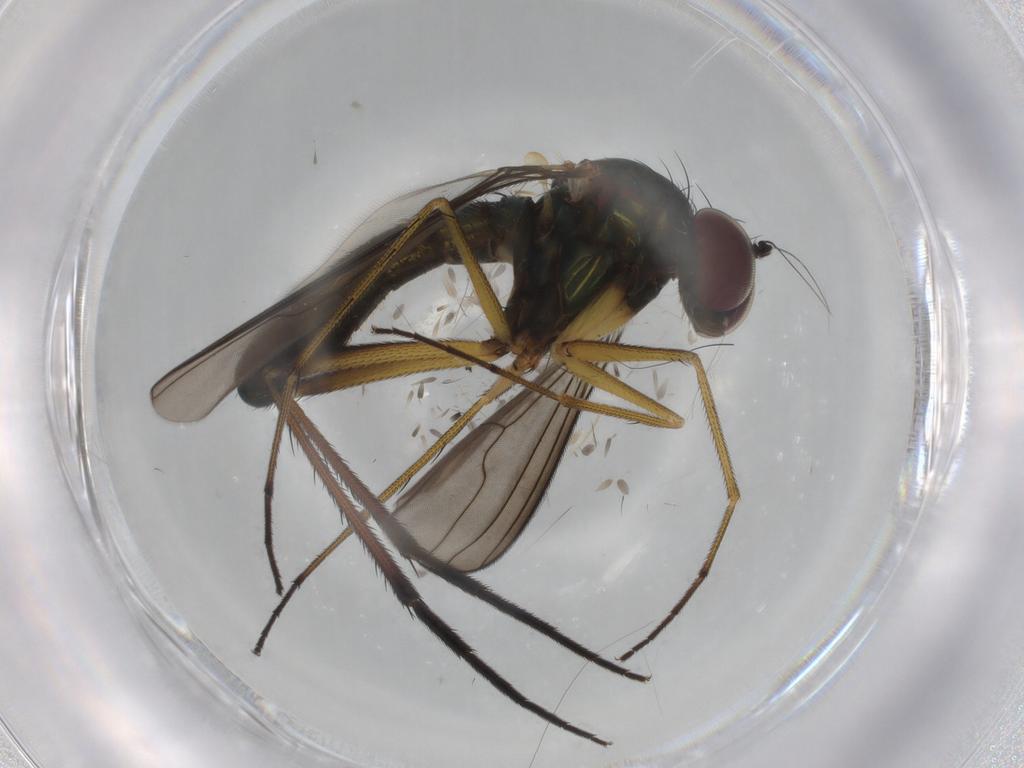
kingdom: Animalia
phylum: Arthropoda
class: Insecta
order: Diptera
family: Dolichopodidae
